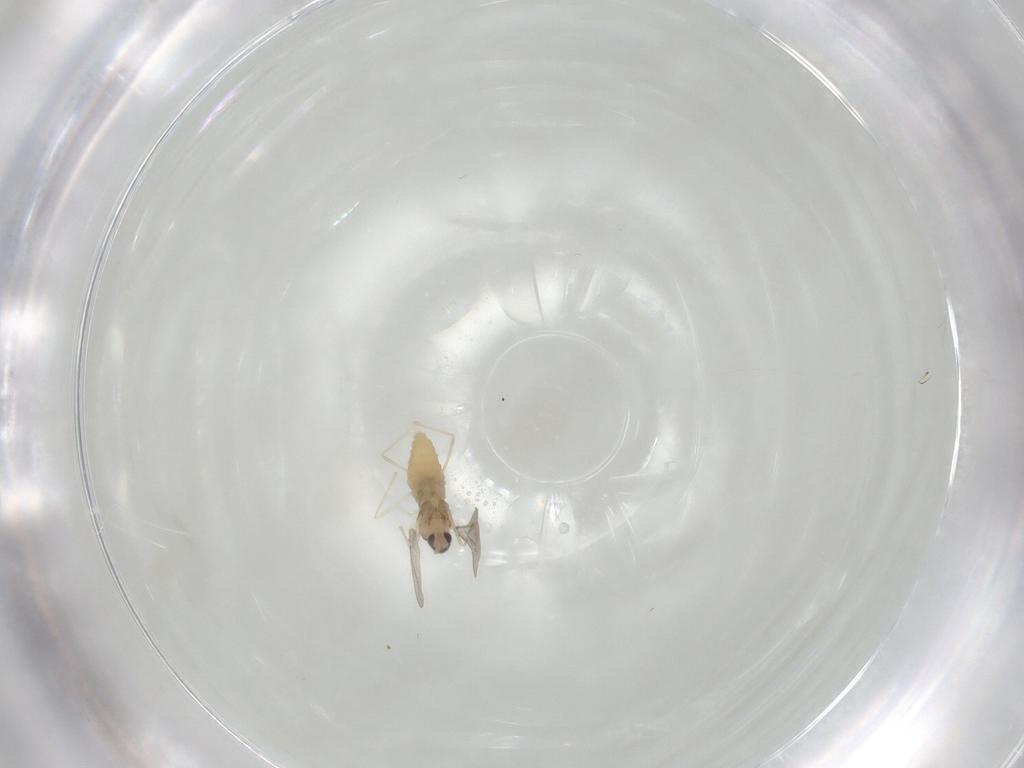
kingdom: Animalia
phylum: Arthropoda
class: Insecta
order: Diptera
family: Cecidomyiidae
